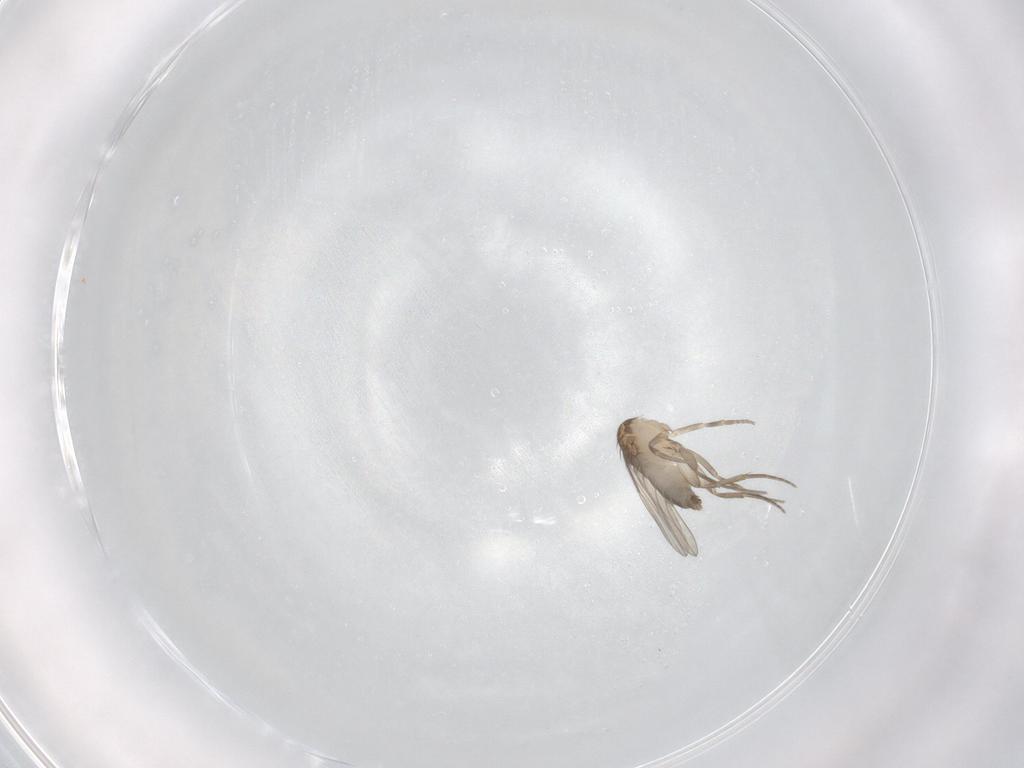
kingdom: Animalia
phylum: Arthropoda
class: Insecta
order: Diptera
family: Phoridae
